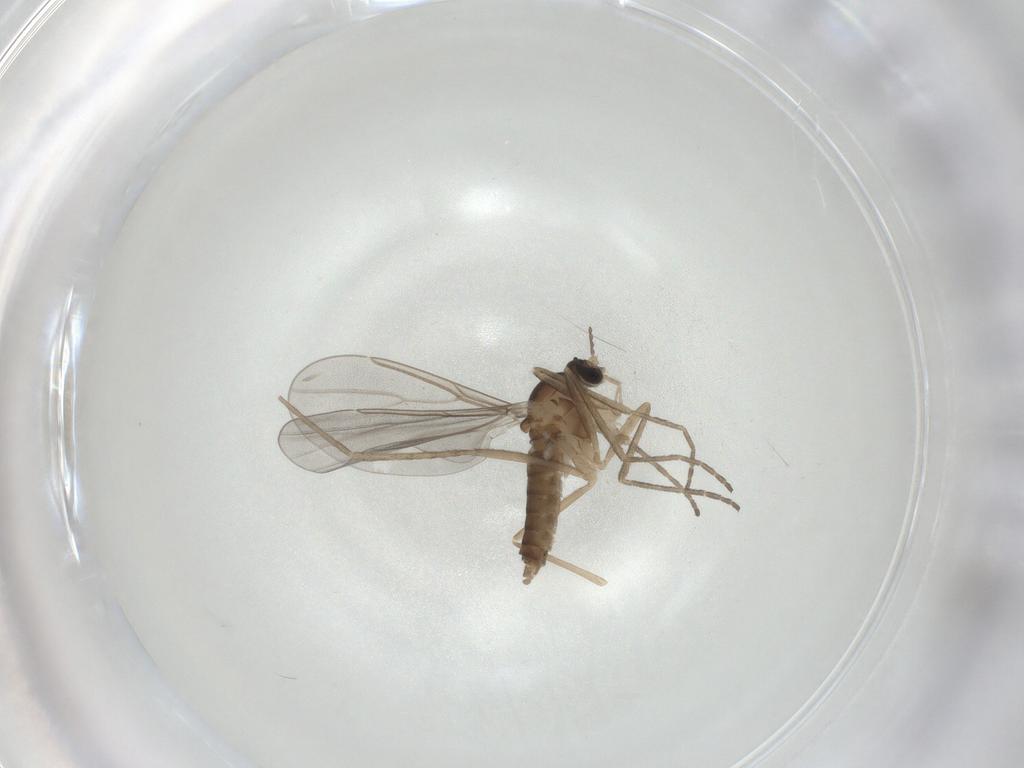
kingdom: Animalia
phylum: Arthropoda
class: Insecta
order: Diptera
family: Cecidomyiidae
